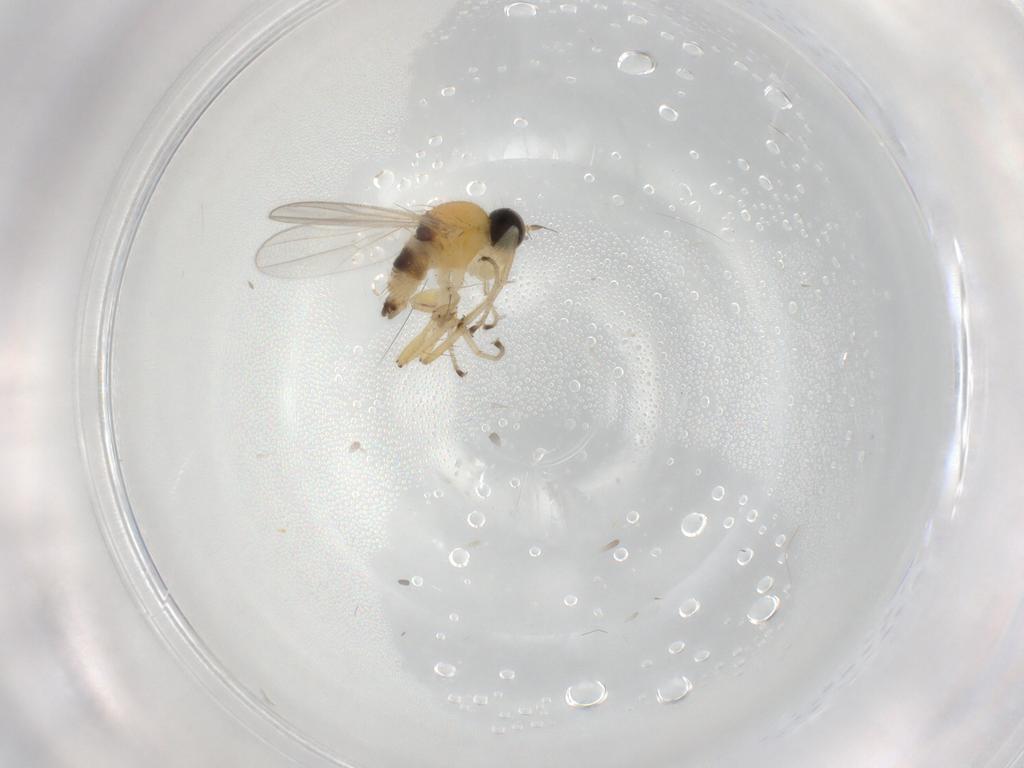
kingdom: Animalia
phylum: Arthropoda
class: Insecta
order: Diptera
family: Hybotidae
